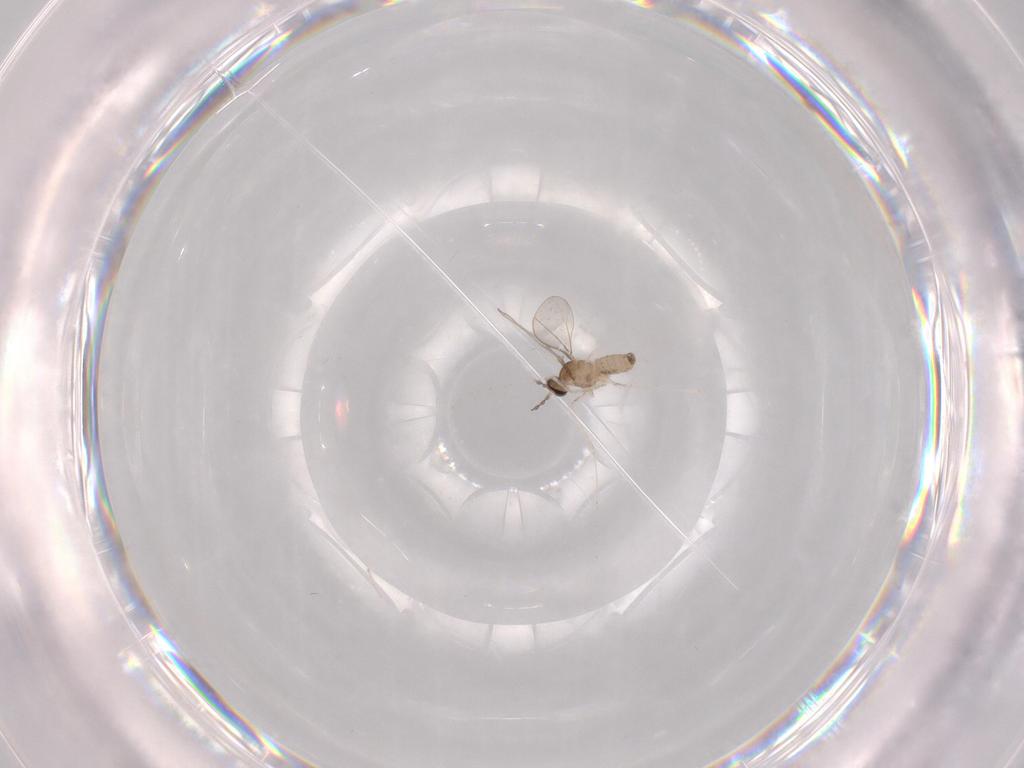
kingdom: Animalia
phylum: Arthropoda
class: Insecta
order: Diptera
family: Cecidomyiidae
